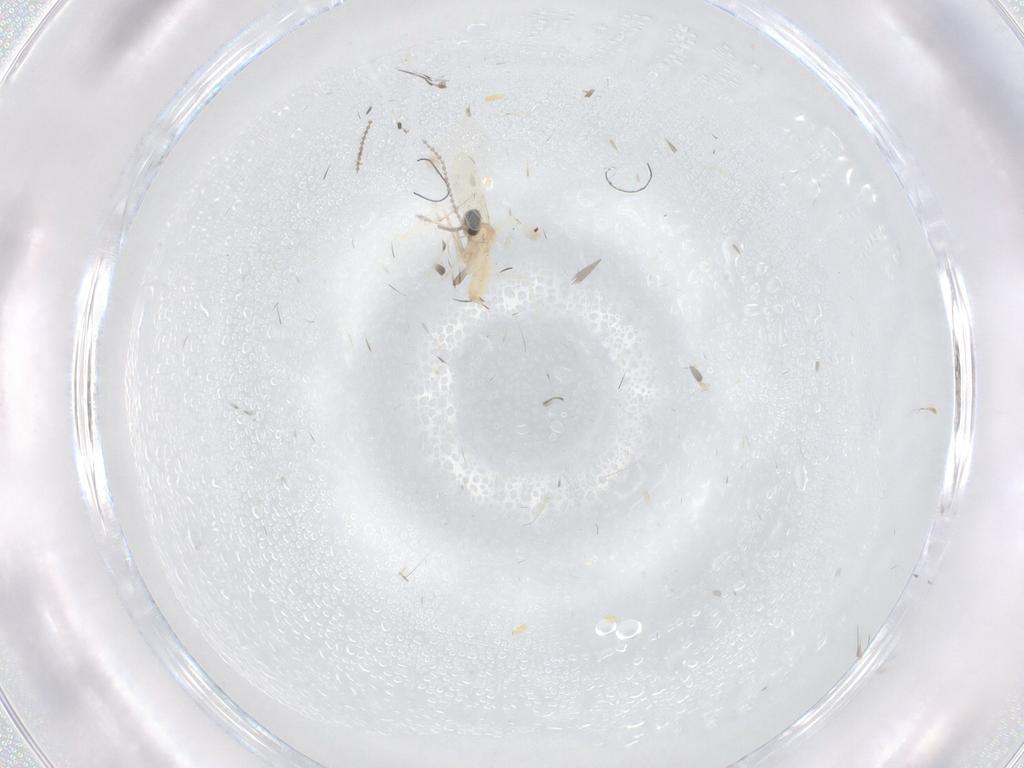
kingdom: Animalia
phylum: Arthropoda
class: Insecta
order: Diptera
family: Cecidomyiidae
